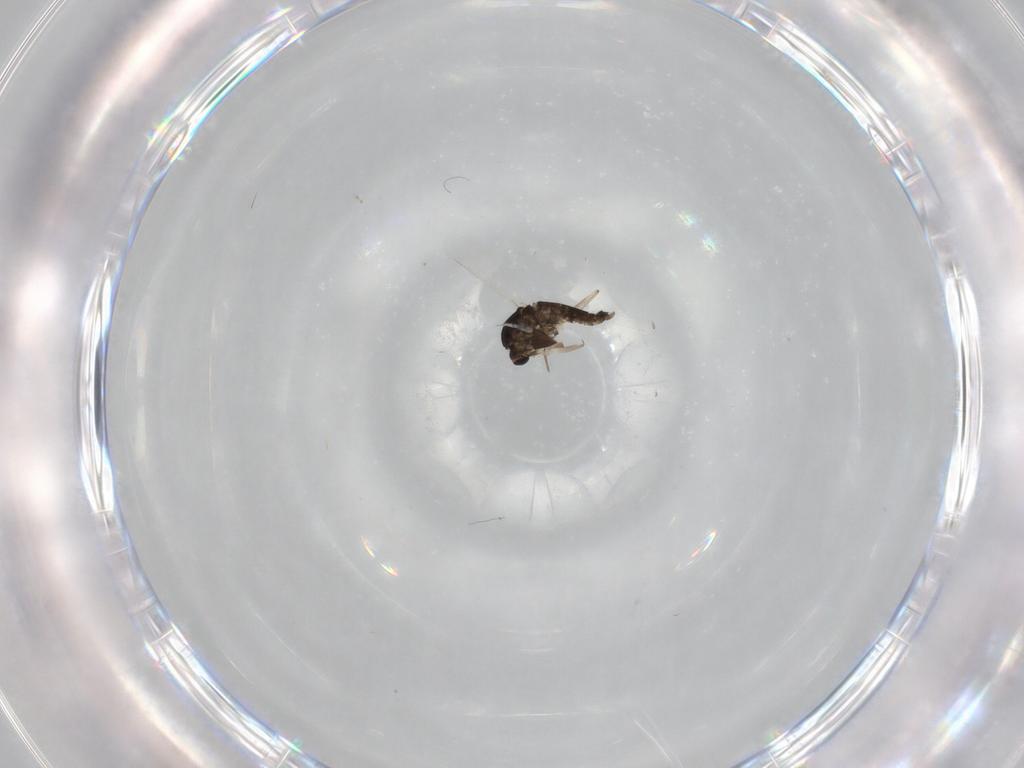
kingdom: Animalia
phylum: Arthropoda
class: Insecta
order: Diptera
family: Chironomidae
